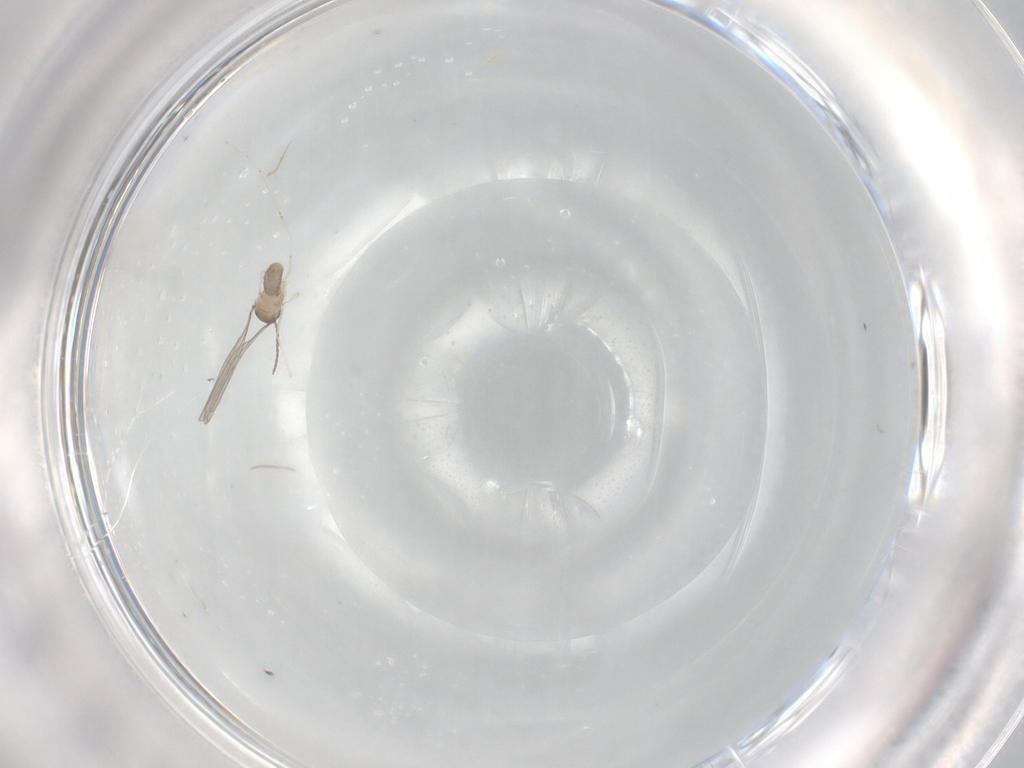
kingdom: Animalia
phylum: Arthropoda
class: Insecta
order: Diptera
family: Cecidomyiidae
